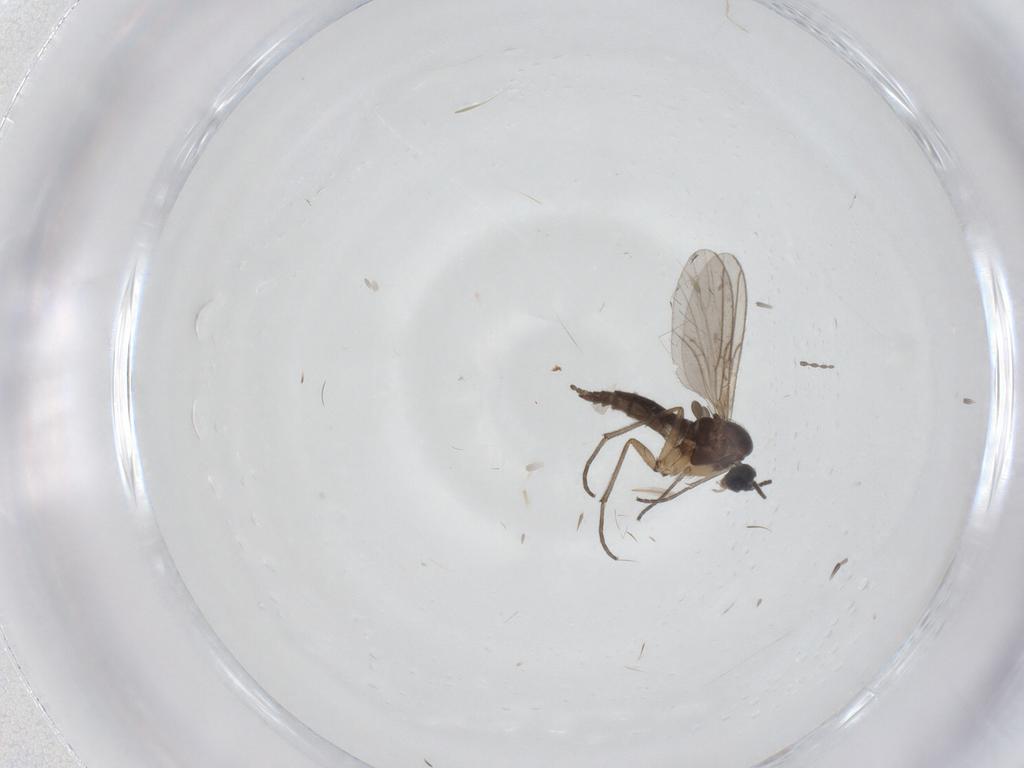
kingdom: Animalia
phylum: Arthropoda
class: Insecta
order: Diptera
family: Sciaridae
